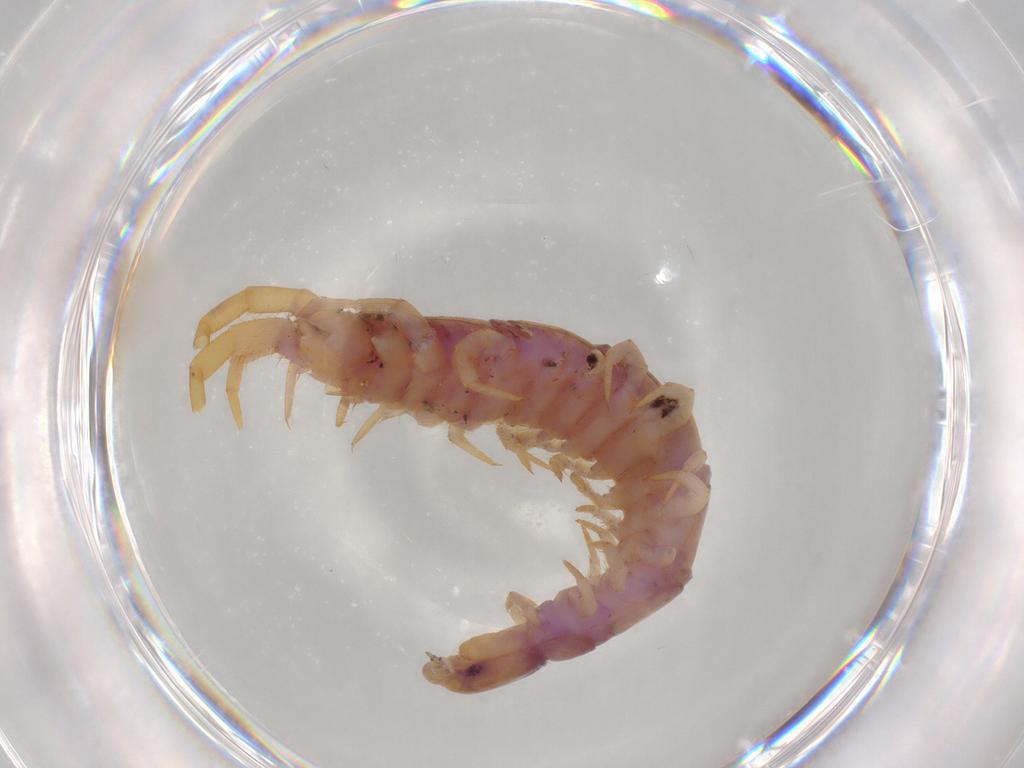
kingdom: Animalia
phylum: Arthropoda
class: Chilopoda
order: Lithobiomorpha
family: Lithobiidae
